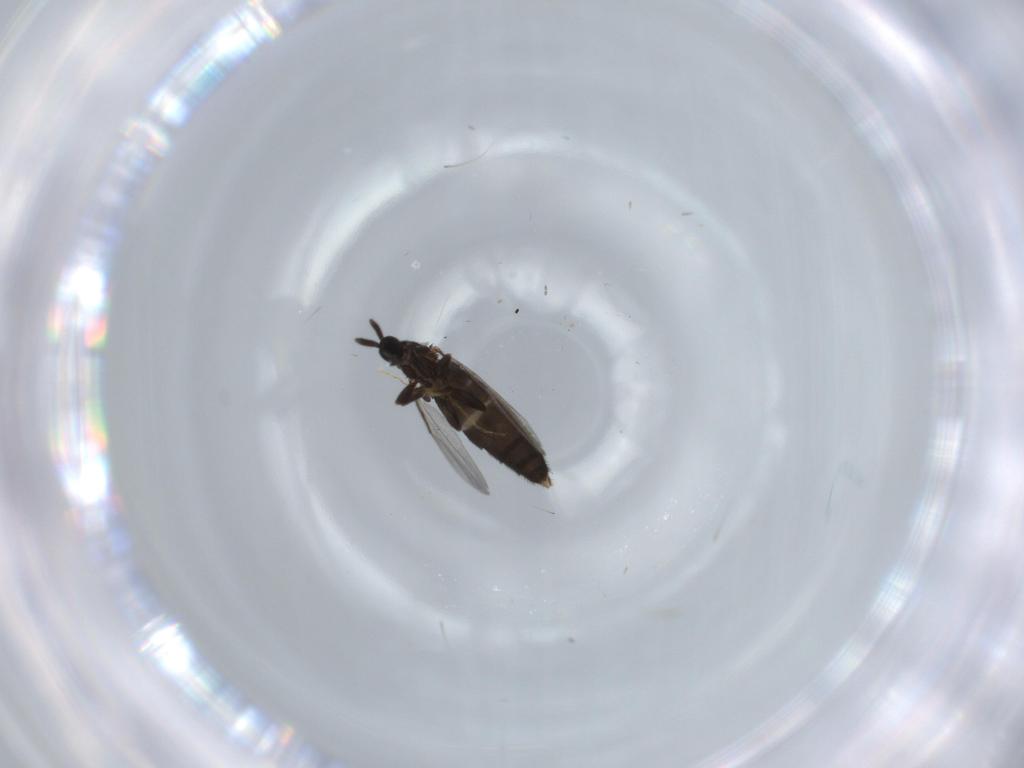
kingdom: Animalia
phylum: Arthropoda
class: Insecta
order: Diptera
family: Scatopsidae
